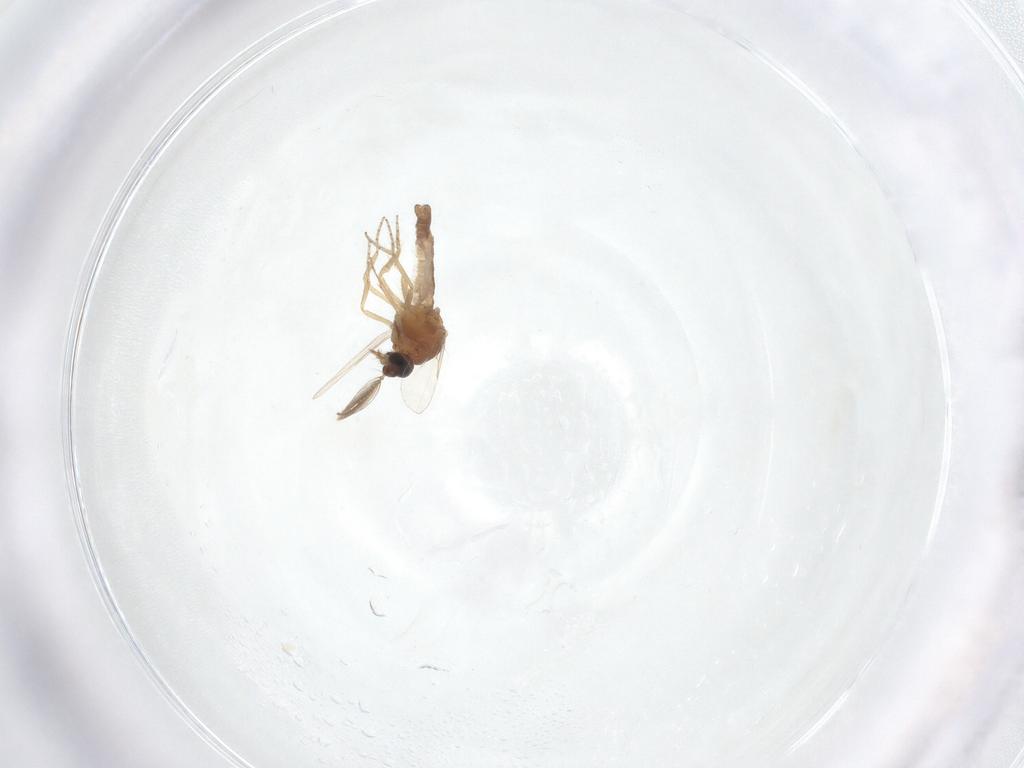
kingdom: Animalia
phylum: Arthropoda
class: Insecta
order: Diptera
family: Ceratopogonidae
